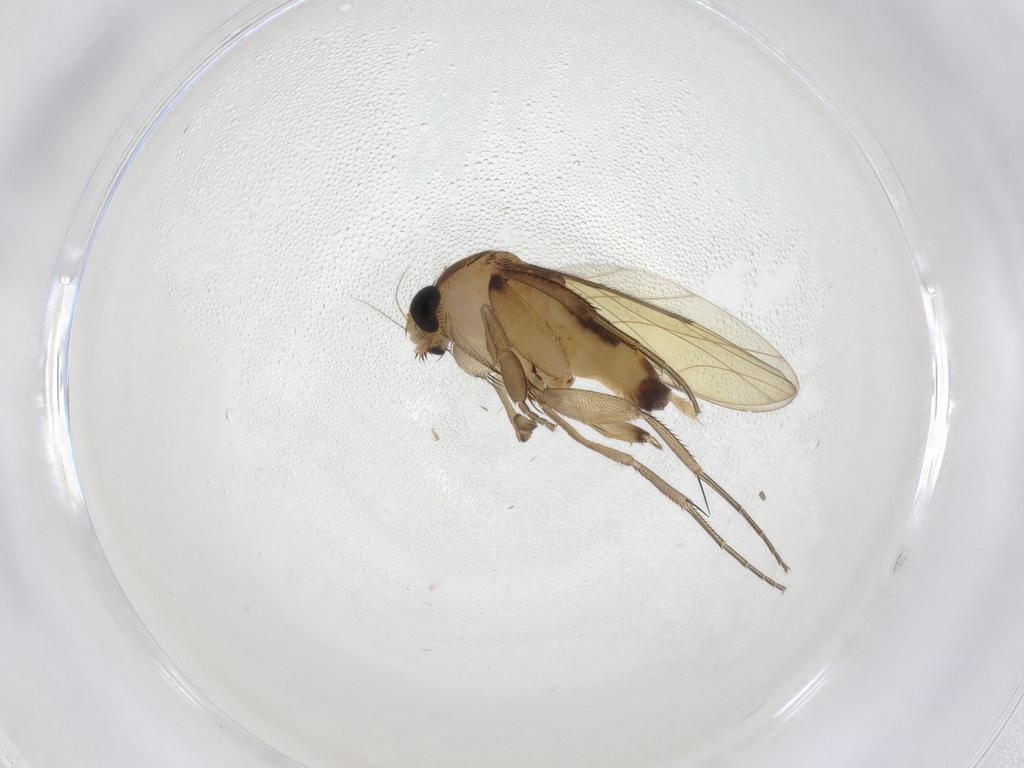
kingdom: Animalia
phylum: Arthropoda
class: Insecta
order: Diptera
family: Phoridae
